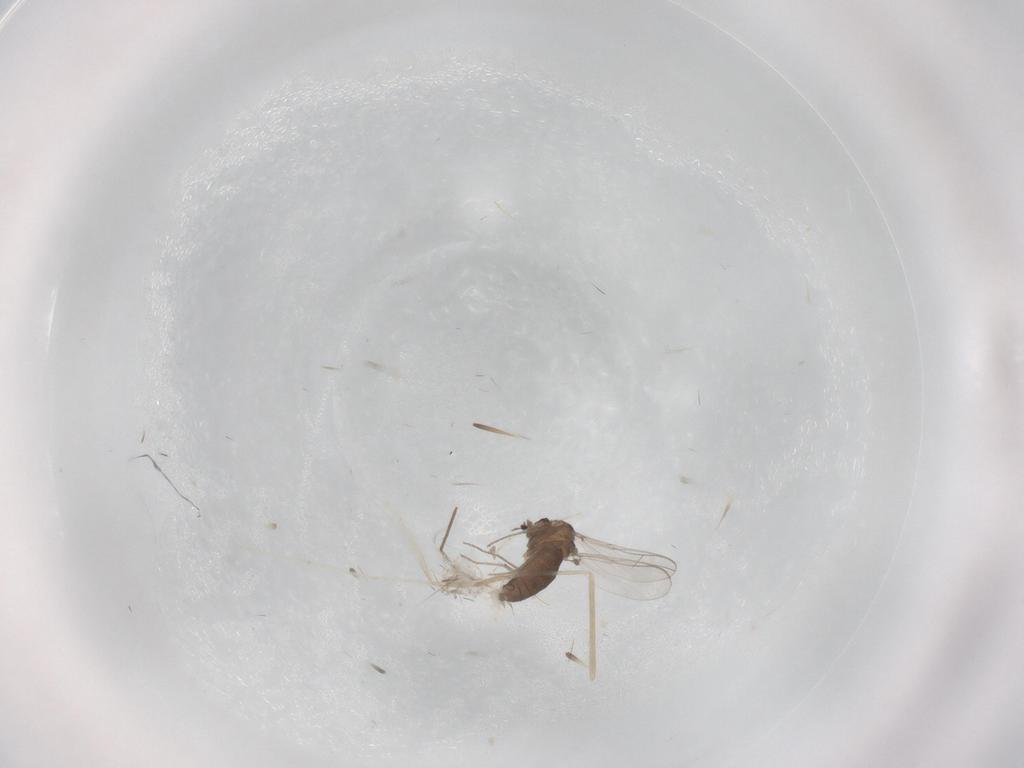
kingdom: Animalia
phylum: Arthropoda
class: Insecta
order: Diptera
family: Chironomidae
